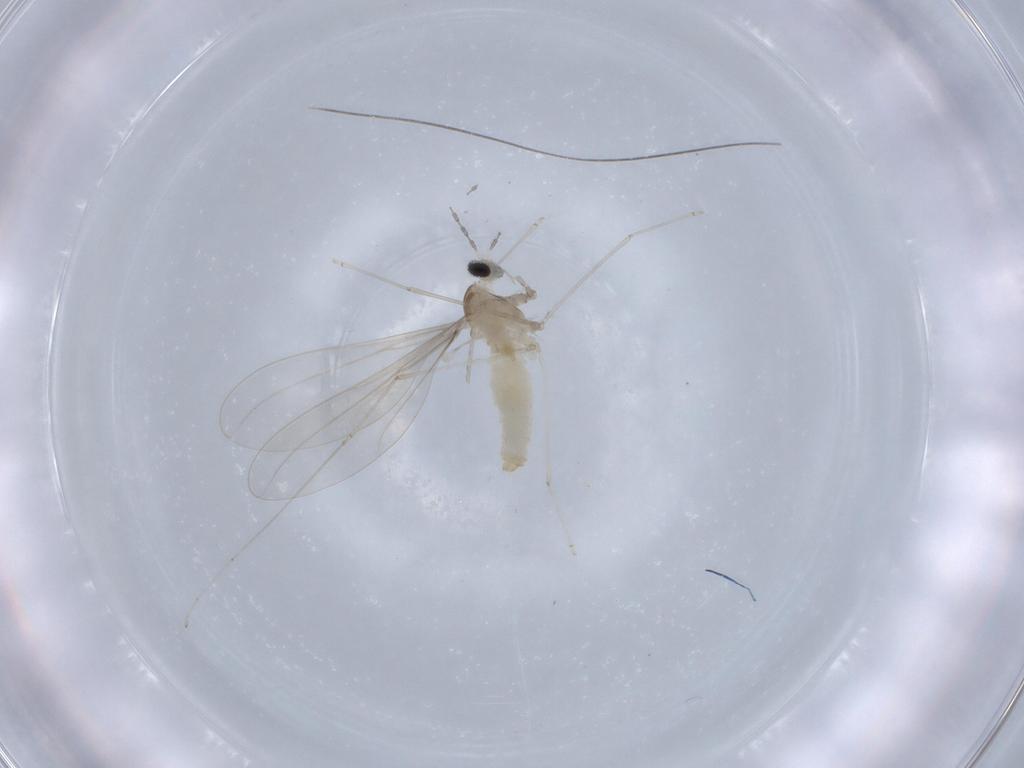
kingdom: Animalia
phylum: Arthropoda
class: Insecta
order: Diptera
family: Cecidomyiidae
